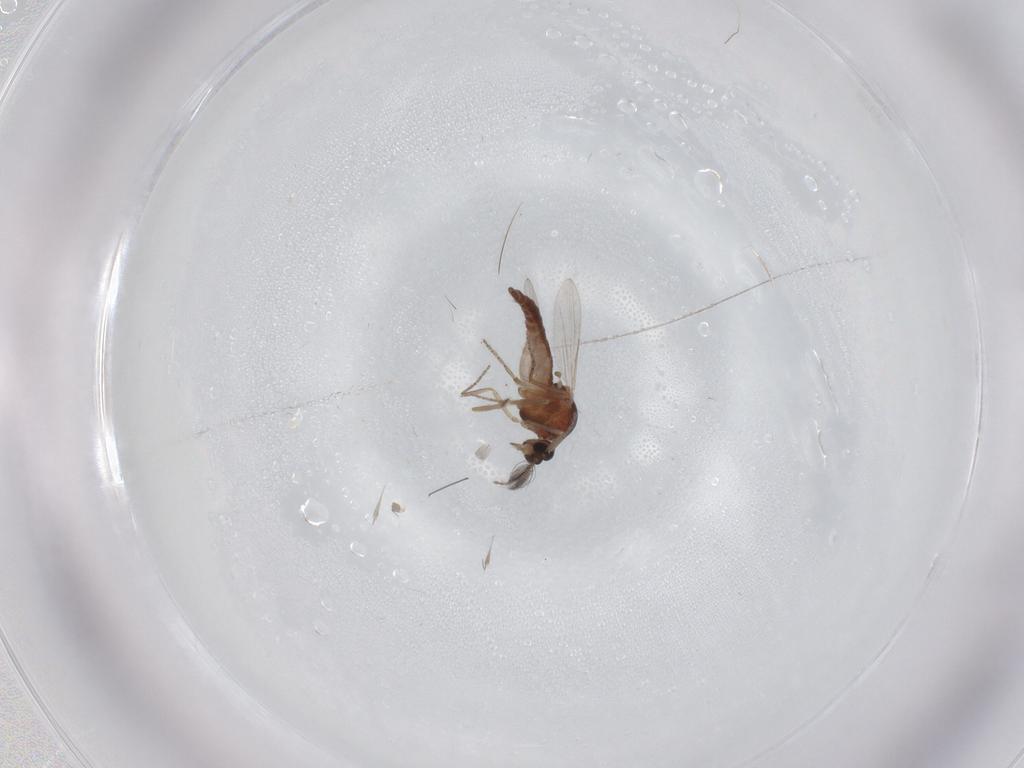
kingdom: Animalia
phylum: Arthropoda
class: Insecta
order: Diptera
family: Ceratopogonidae
